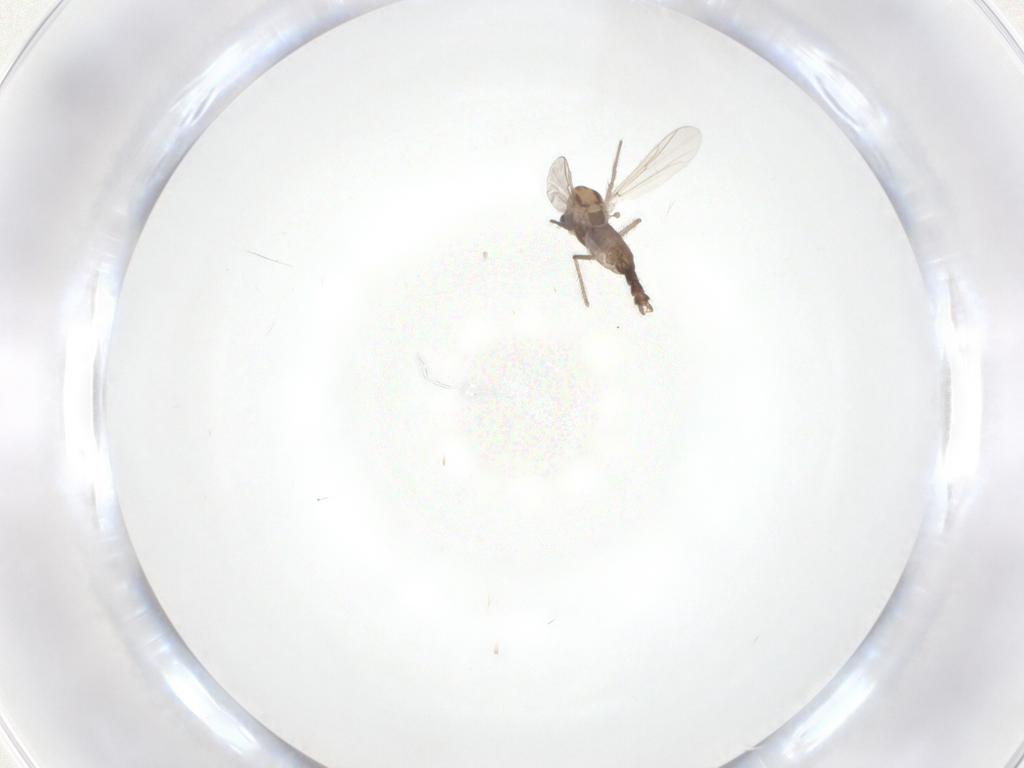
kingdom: Animalia
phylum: Arthropoda
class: Insecta
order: Diptera
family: Chironomidae
